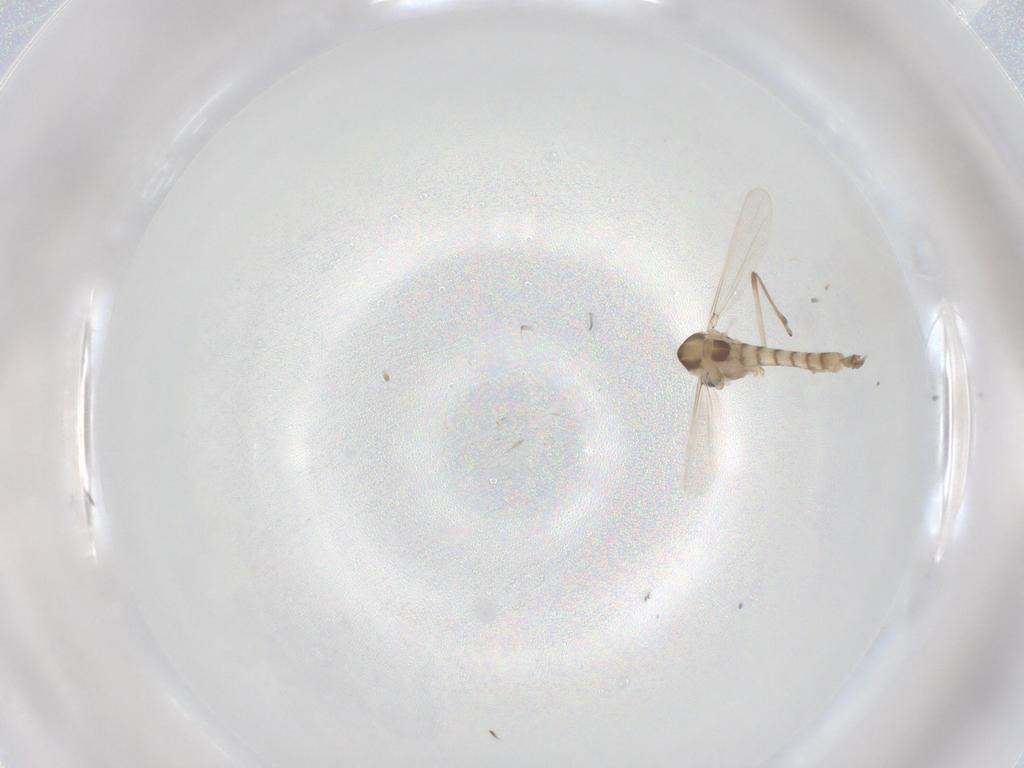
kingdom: Animalia
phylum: Arthropoda
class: Insecta
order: Diptera
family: Chironomidae
